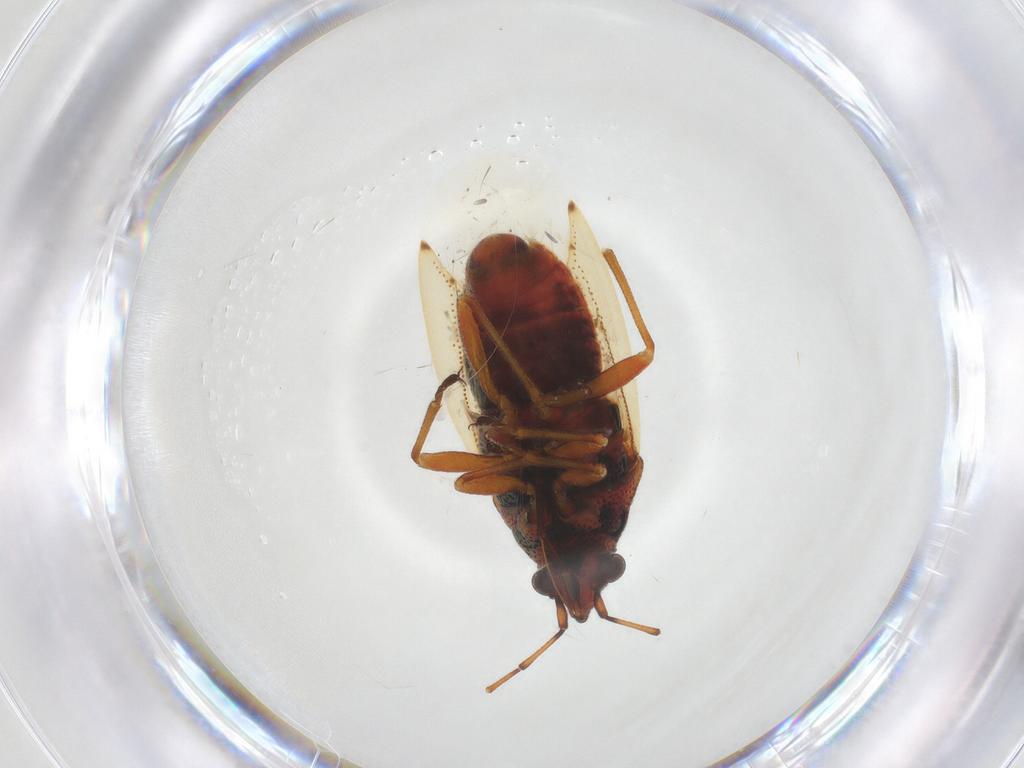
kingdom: Animalia
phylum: Arthropoda
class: Insecta
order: Hemiptera
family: Lygaeidae
